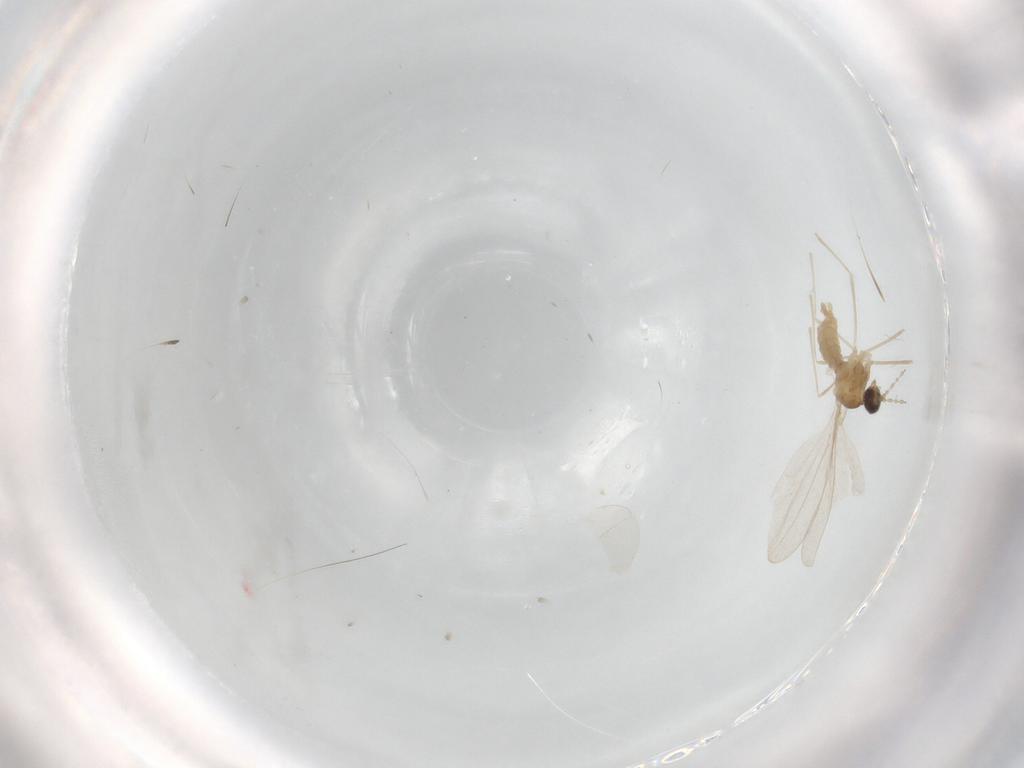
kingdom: Animalia
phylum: Arthropoda
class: Insecta
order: Diptera
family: Cecidomyiidae
